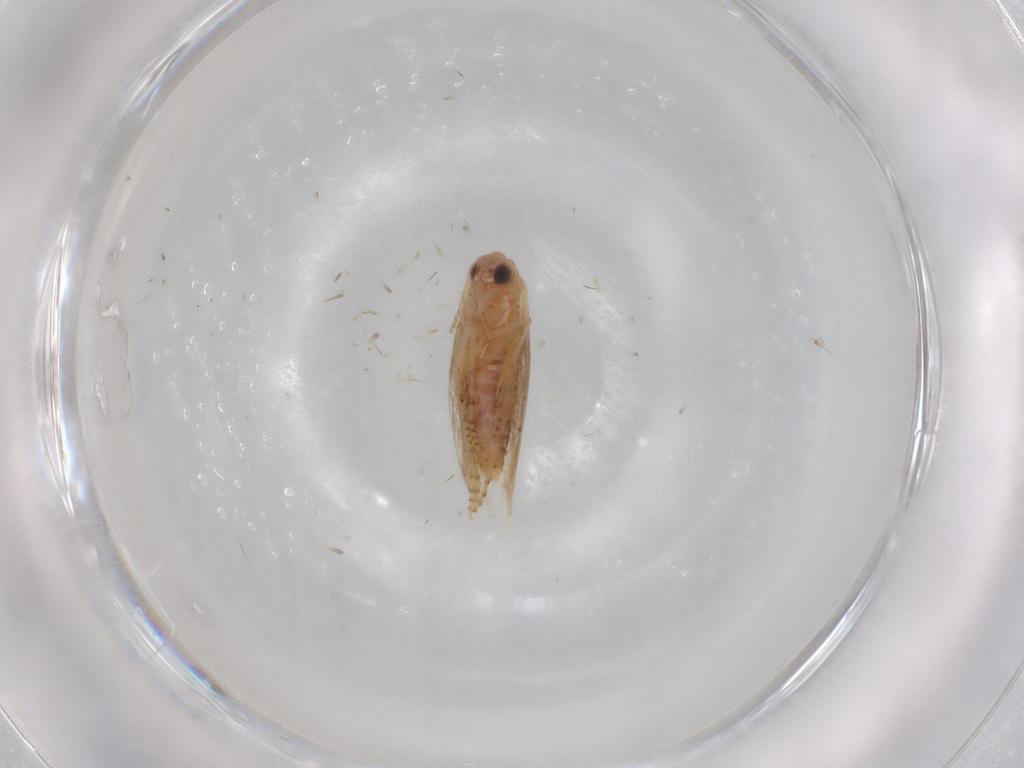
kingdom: Animalia
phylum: Arthropoda
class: Insecta
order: Lepidoptera
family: Bucculatricidae
